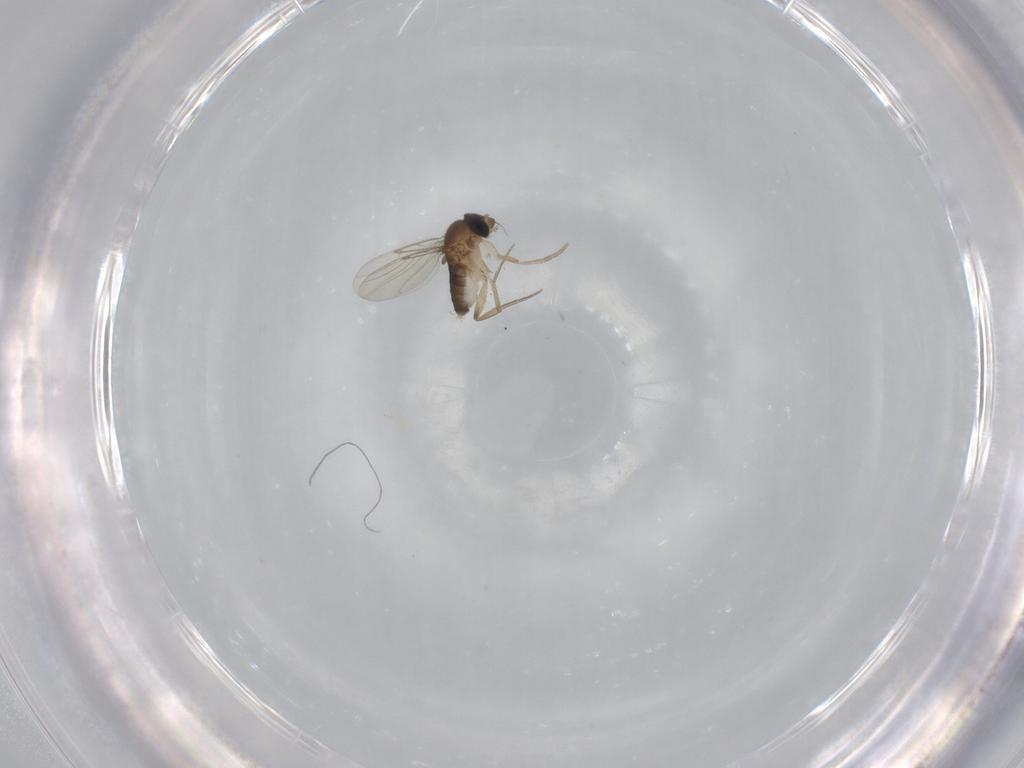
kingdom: Animalia
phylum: Arthropoda
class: Insecta
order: Diptera
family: Phoridae
